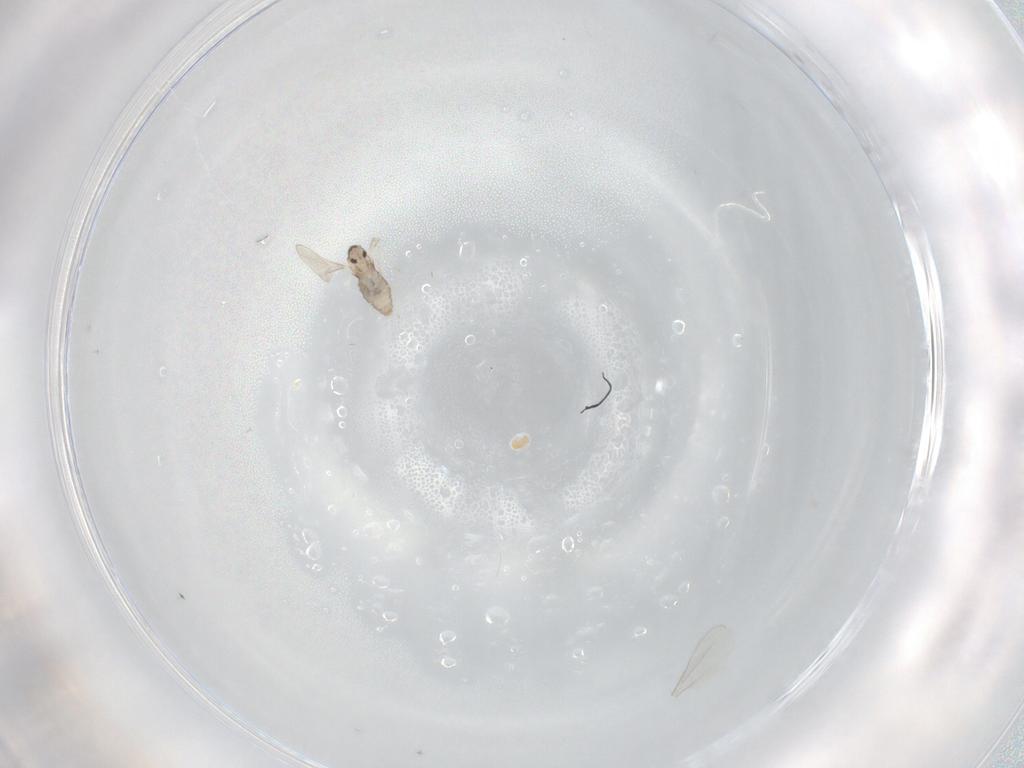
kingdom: Animalia
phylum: Arthropoda
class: Insecta
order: Diptera
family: Cecidomyiidae
